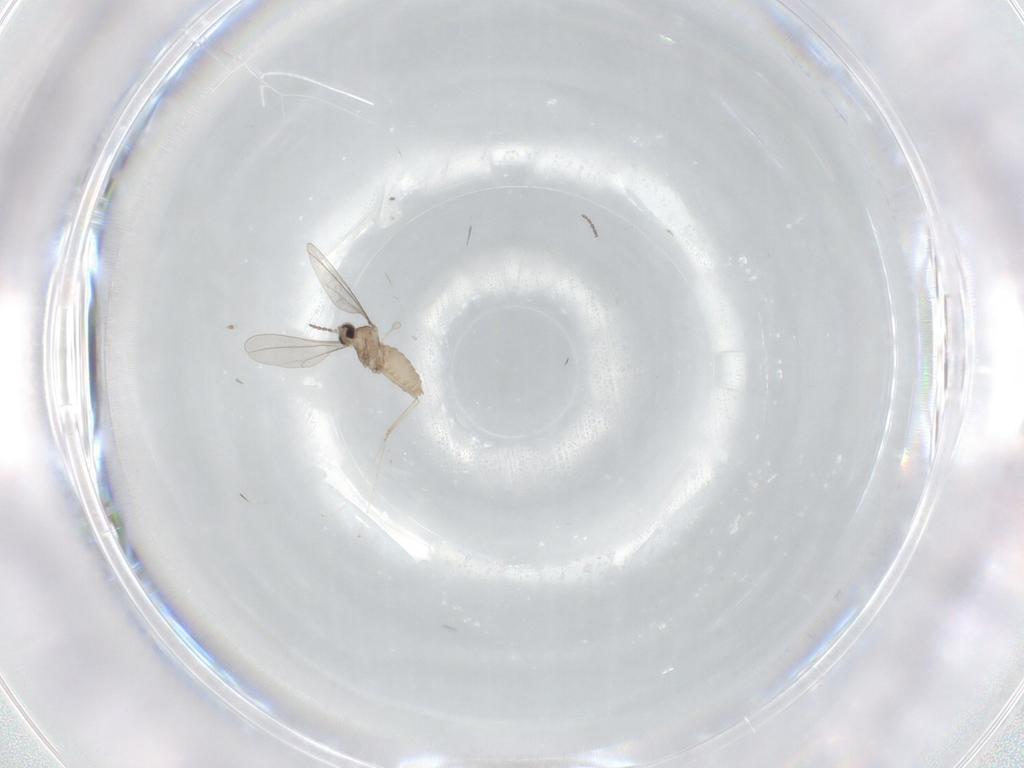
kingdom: Animalia
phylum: Arthropoda
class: Insecta
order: Diptera
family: Cecidomyiidae
